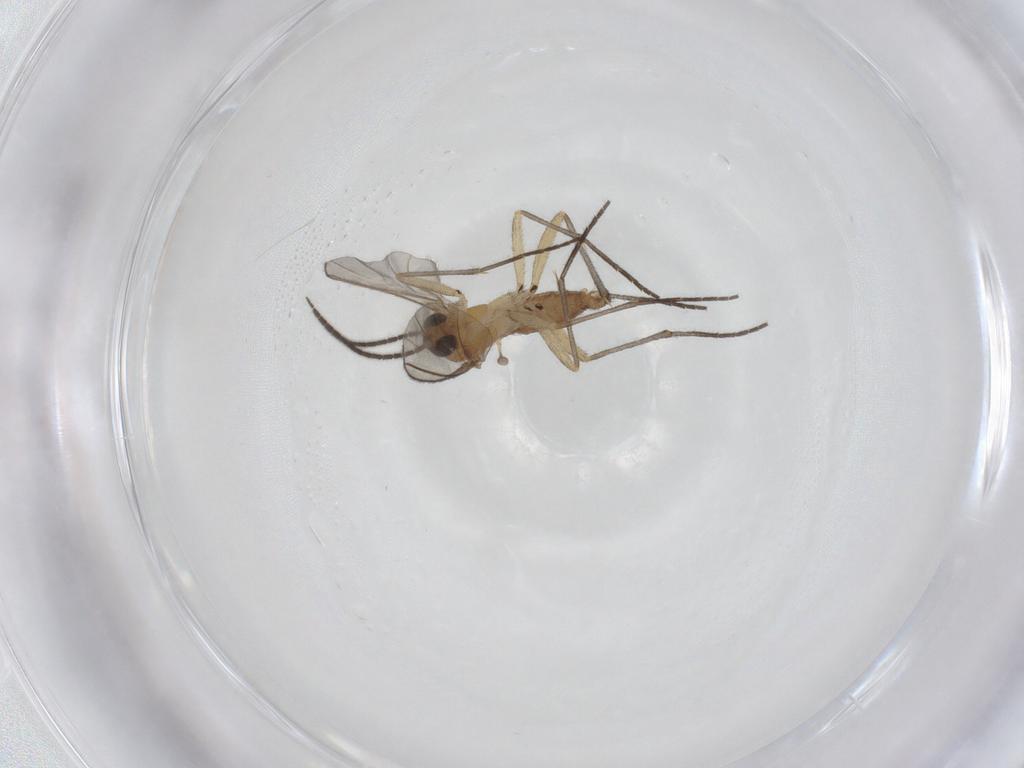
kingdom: Animalia
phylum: Arthropoda
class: Insecta
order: Diptera
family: Sciaridae
